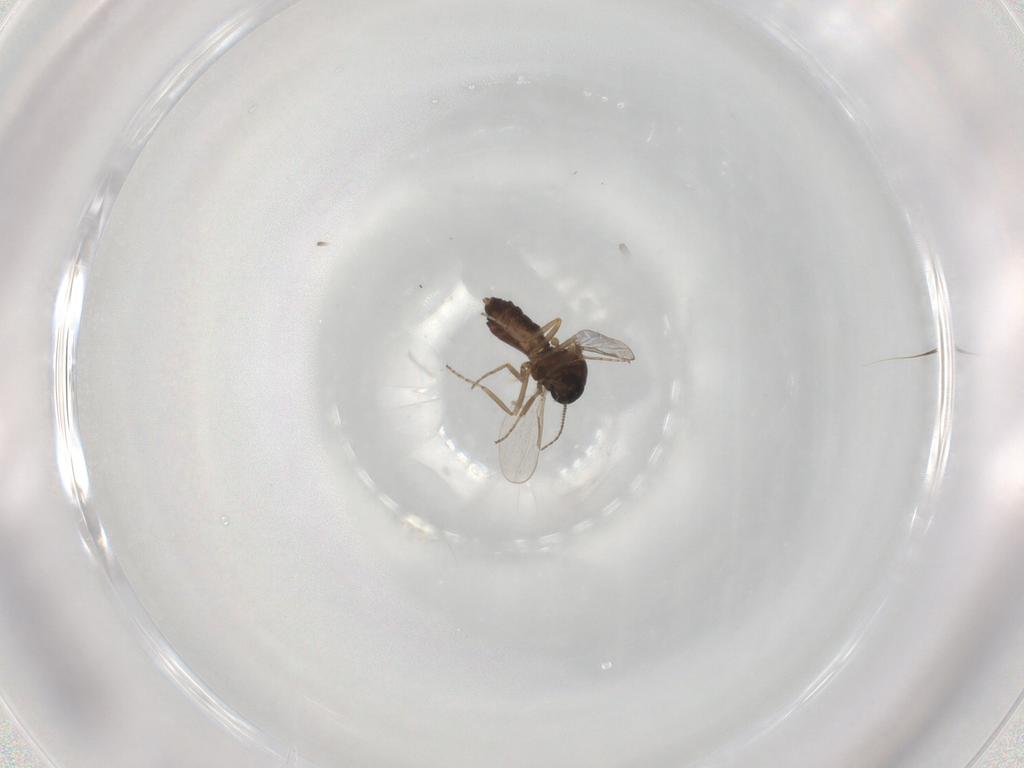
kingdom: Animalia
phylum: Arthropoda
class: Insecta
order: Diptera
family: Ceratopogonidae
